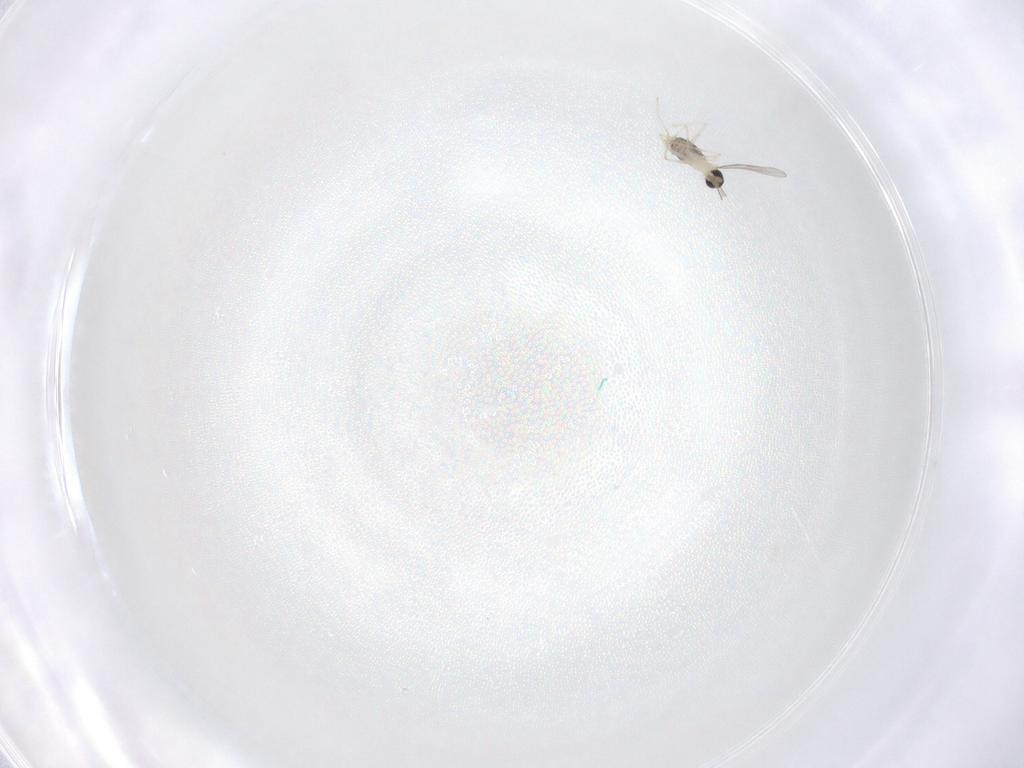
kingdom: Animalia
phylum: Arthropoda
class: Insecta
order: Diptera
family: Cecidomyiidae
